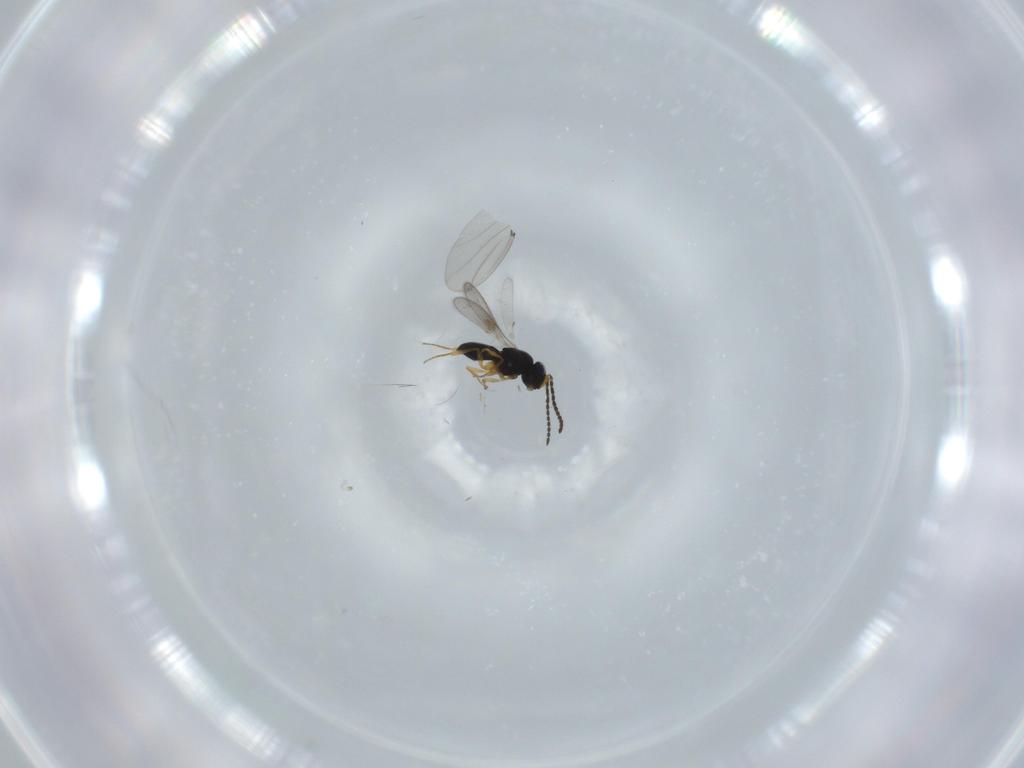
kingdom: Animalia
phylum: Arthropoda
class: Insecta
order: Hymenoptera
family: Scelionidae
